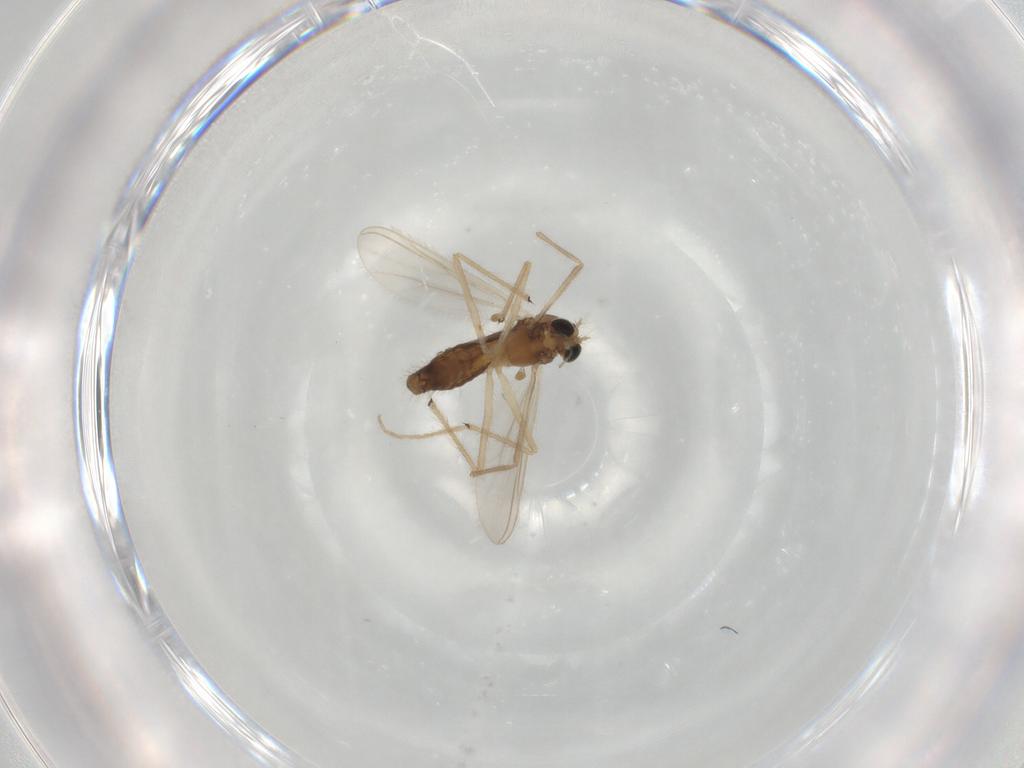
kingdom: Animalia
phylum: Arthropoda
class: Insecta
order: Diptera
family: Chironomidae
